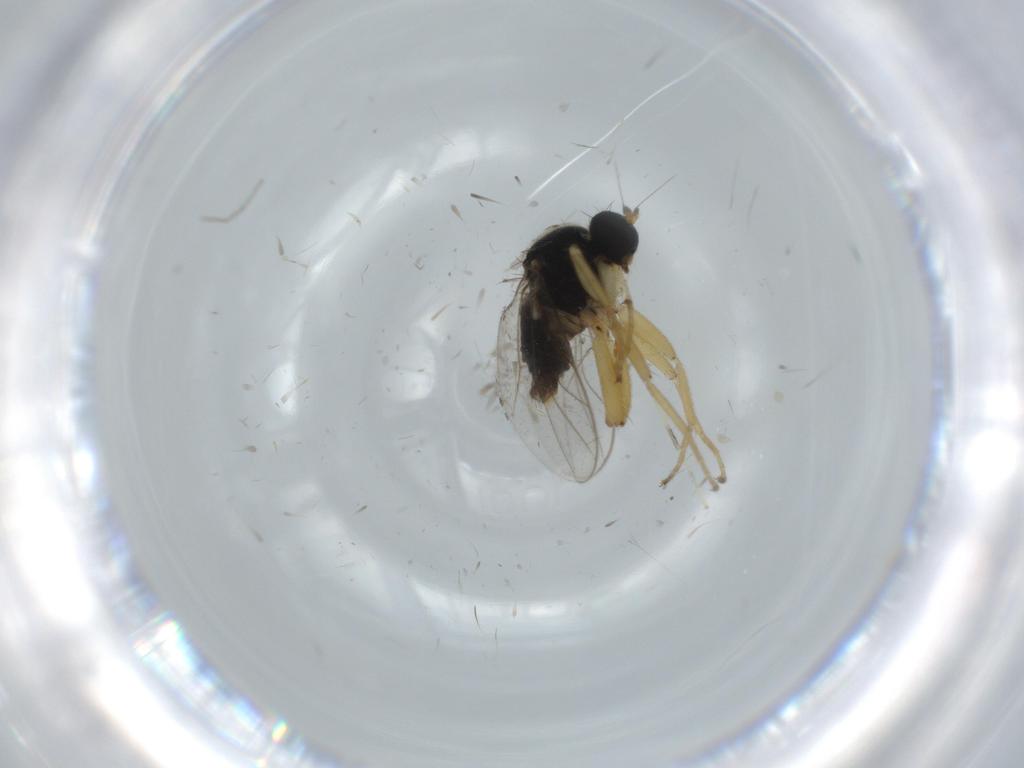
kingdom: Animalia
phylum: Arthropoda
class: Insecta
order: Diptera
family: Hybotidae
